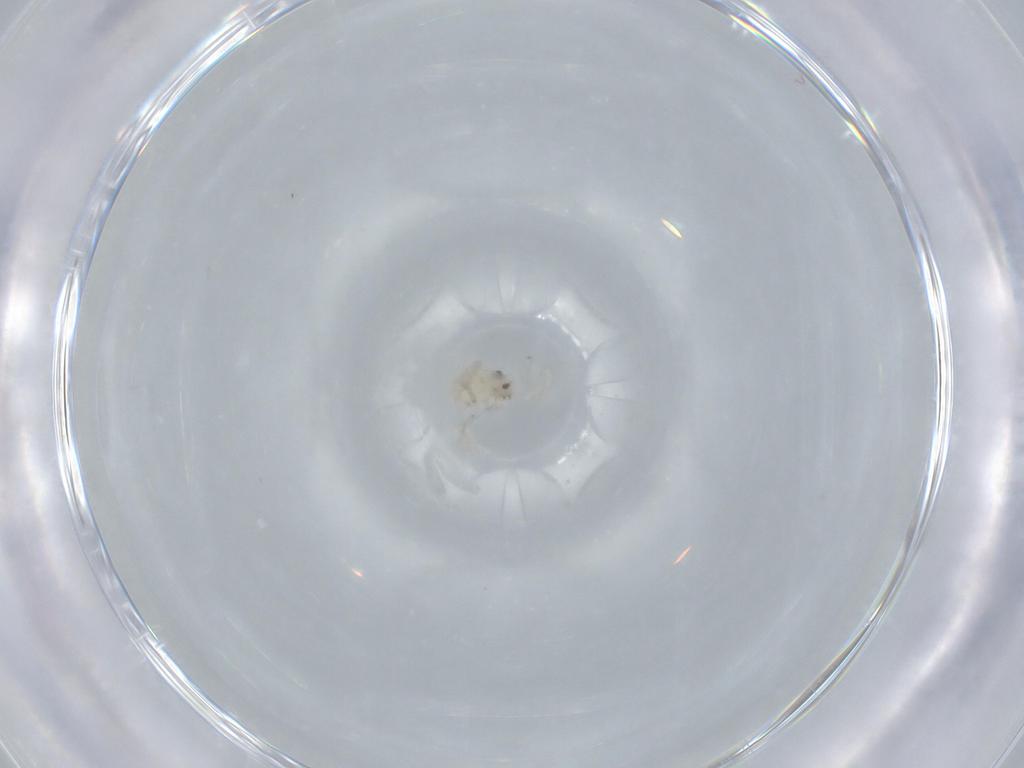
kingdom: Animalia
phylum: Arthropoda
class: Arachnida
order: Araneae
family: Oonopidae
